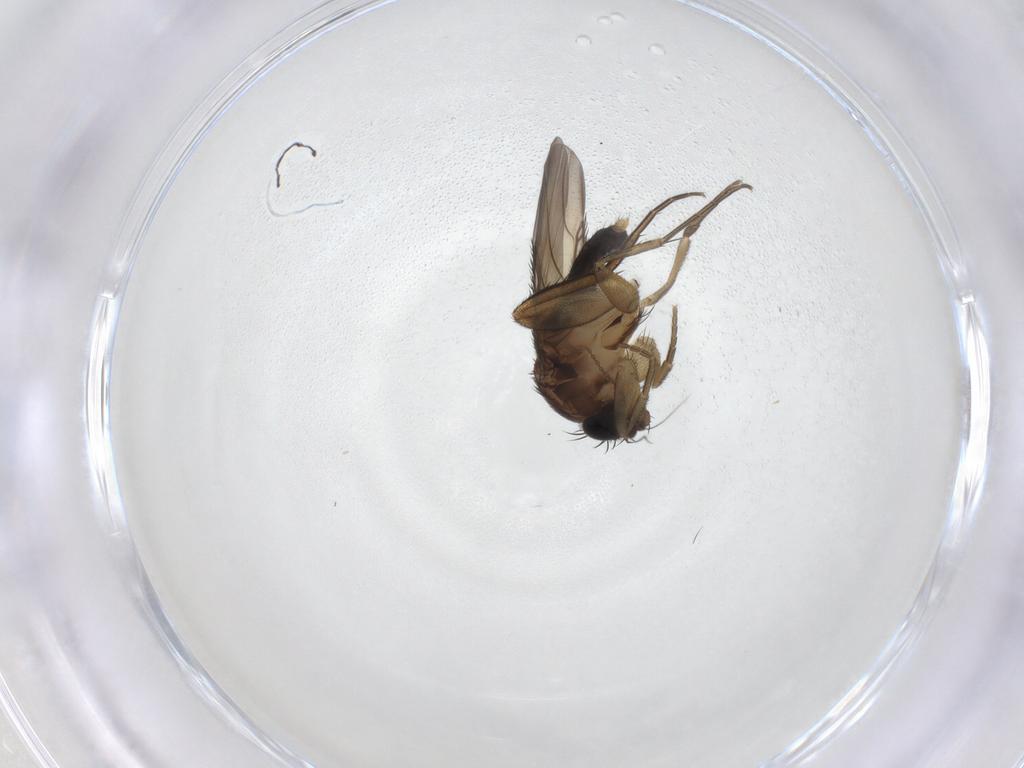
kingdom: Animalia
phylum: Arthropoda
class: Insecta
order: Diptera
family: Phoridae
